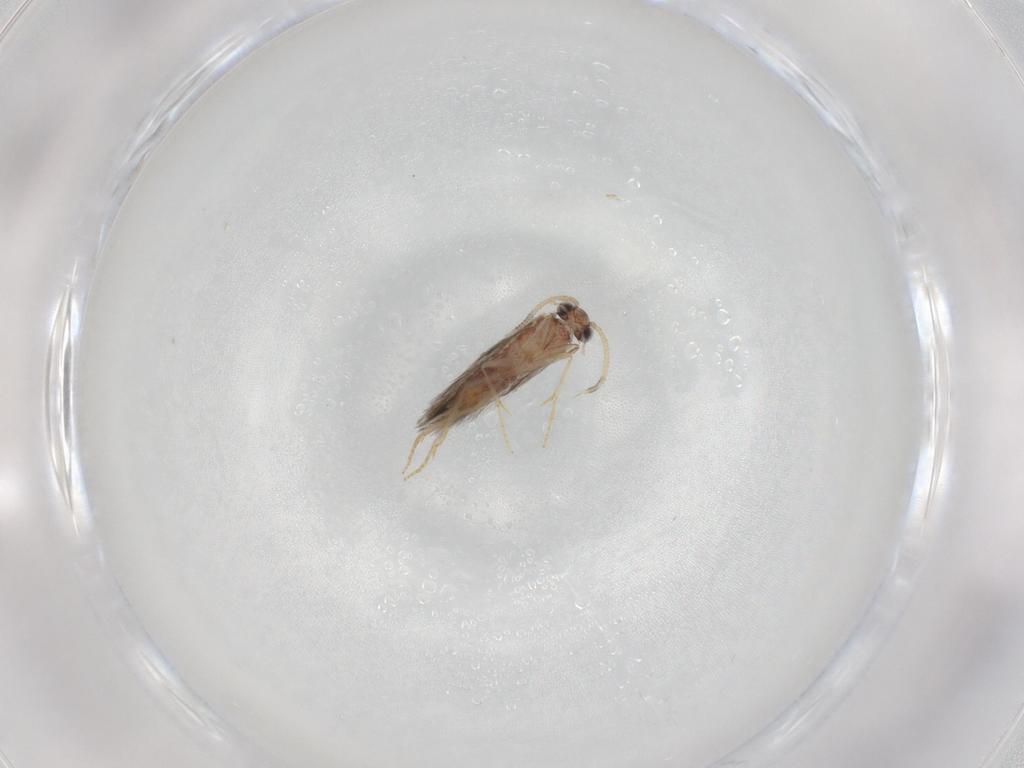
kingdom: Animalia
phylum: Arthropoda
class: Insecta
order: Trichoptera
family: Hydroptilidae
